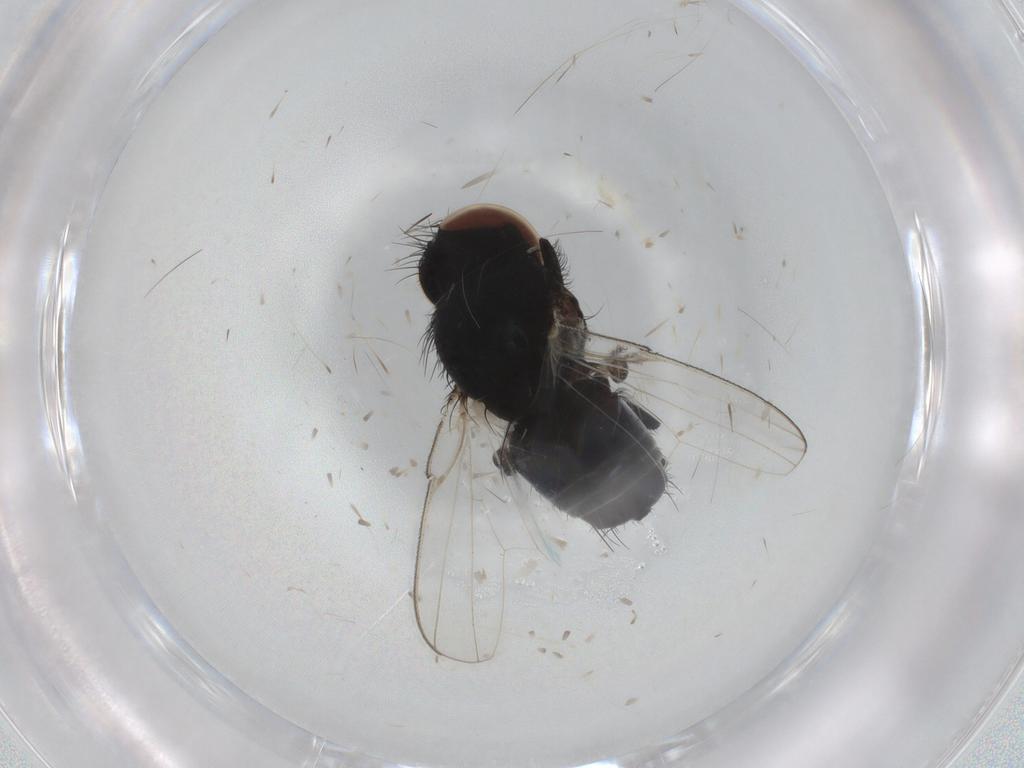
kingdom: Animalia
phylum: Arthropoda
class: Insecta
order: Diptera
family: Milichiidae
